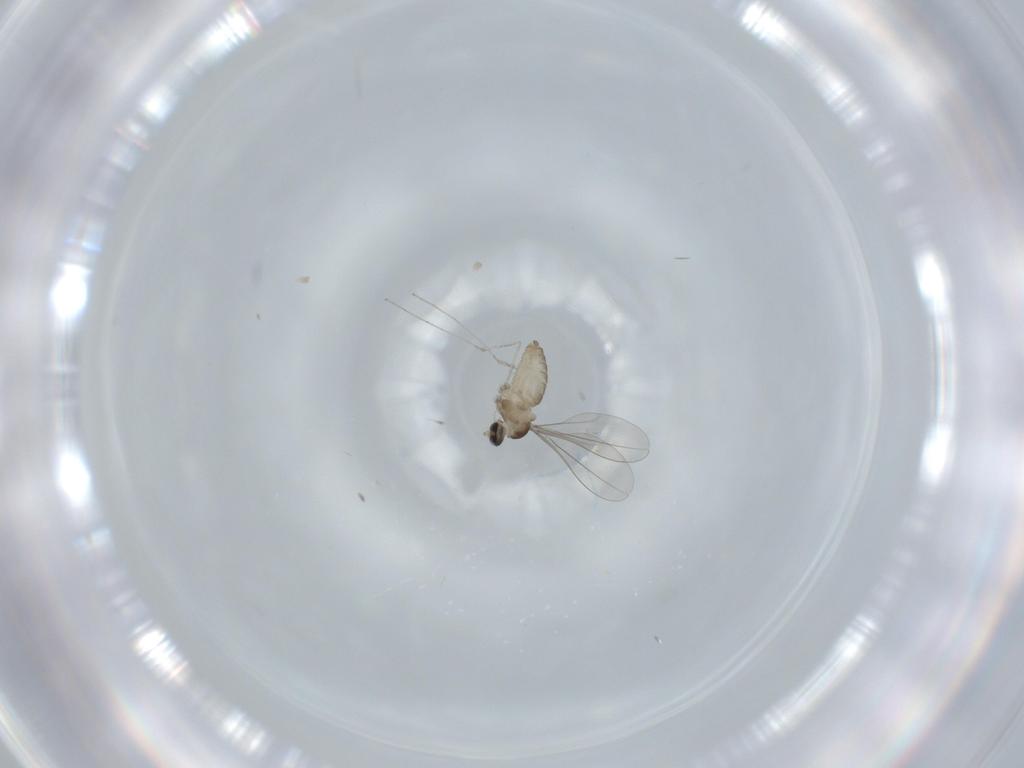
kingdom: Animalia
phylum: Arthropoda
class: Insecta
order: Diptera
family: Cecidomyiidae
